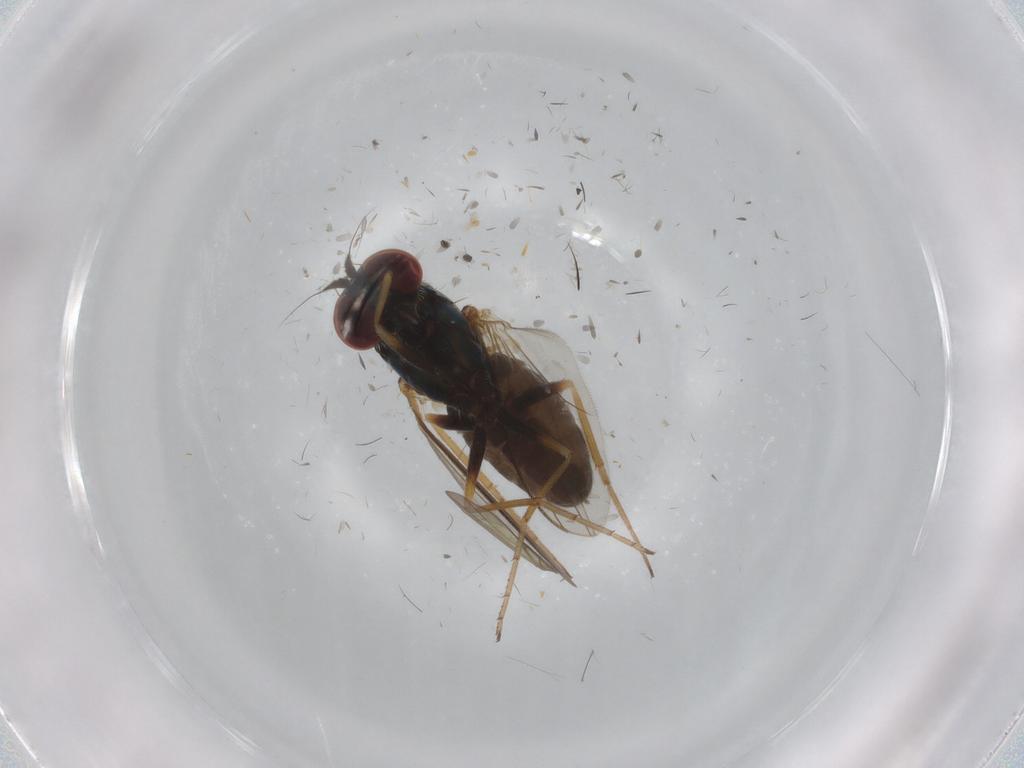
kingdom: Animalia
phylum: Arthropoda
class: Insecta
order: Diptera
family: Dolichopodidae
